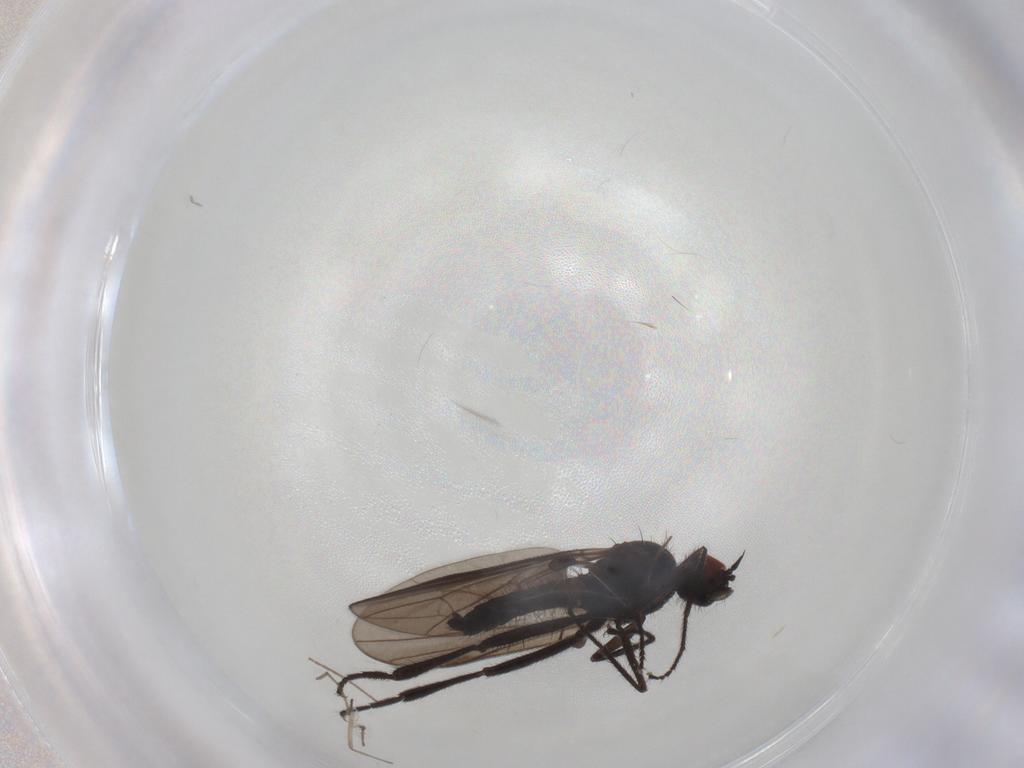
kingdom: Animalia
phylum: Arthropoda
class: Insecta
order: Diptera
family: Hybotidae
